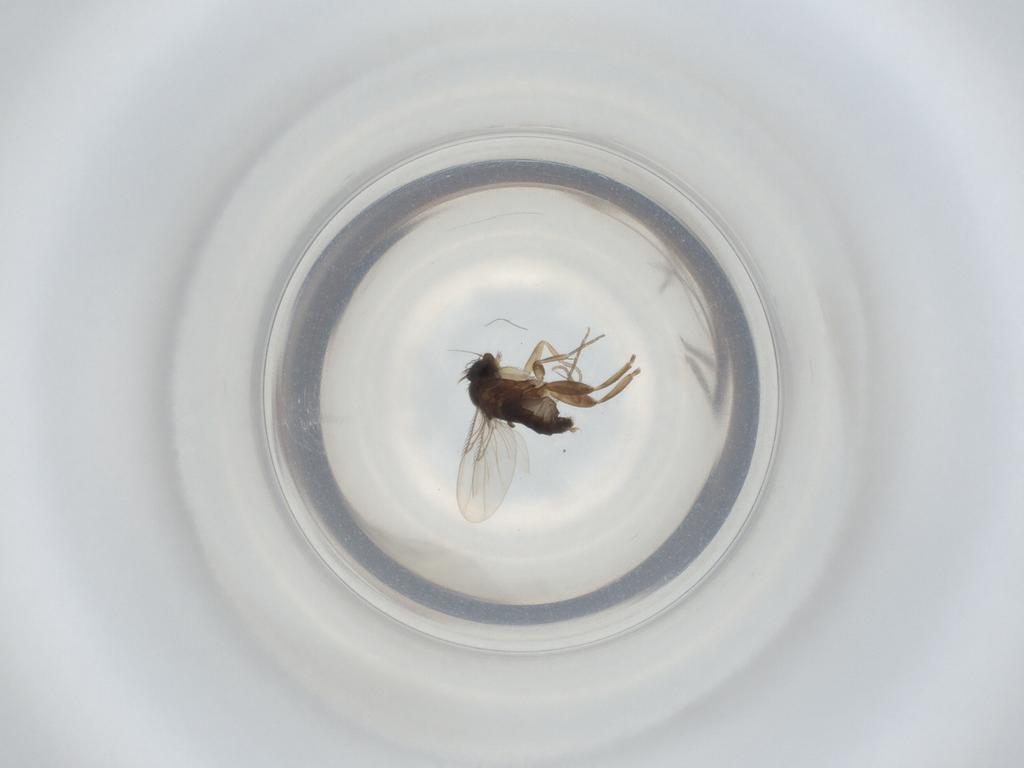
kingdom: Animalia
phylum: Arthropoda
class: Insecta
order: Diptera
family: Phoridae
